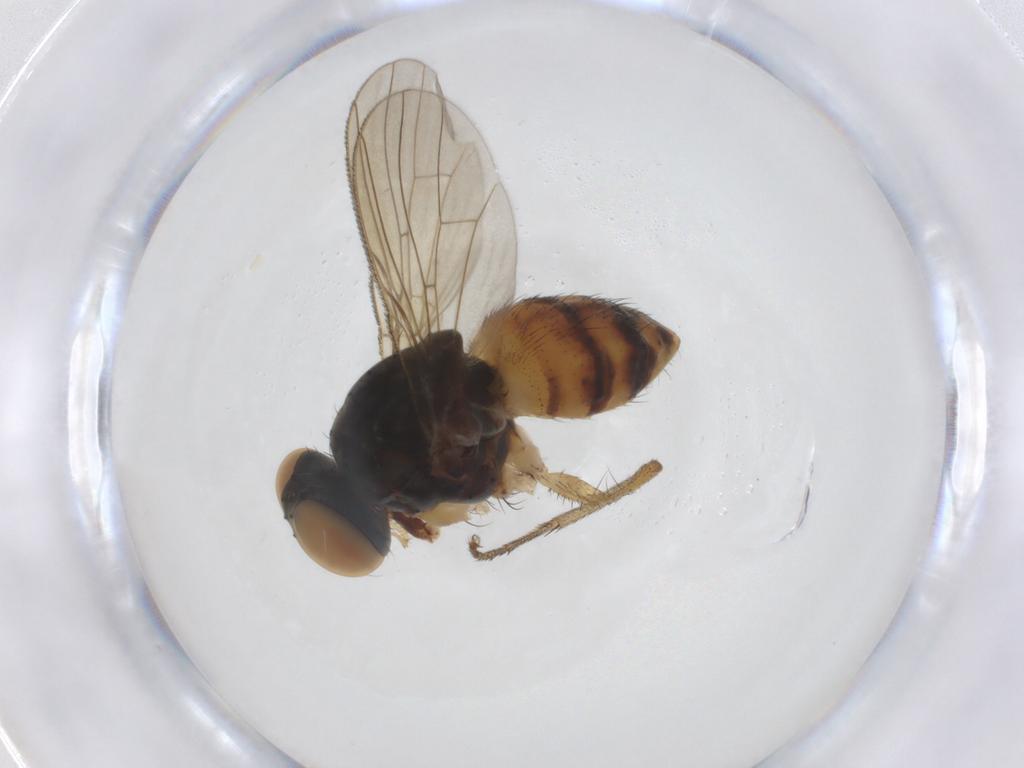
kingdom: Animalia
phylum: Arthropoda
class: Insecta
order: Diptera
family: Muscidae
